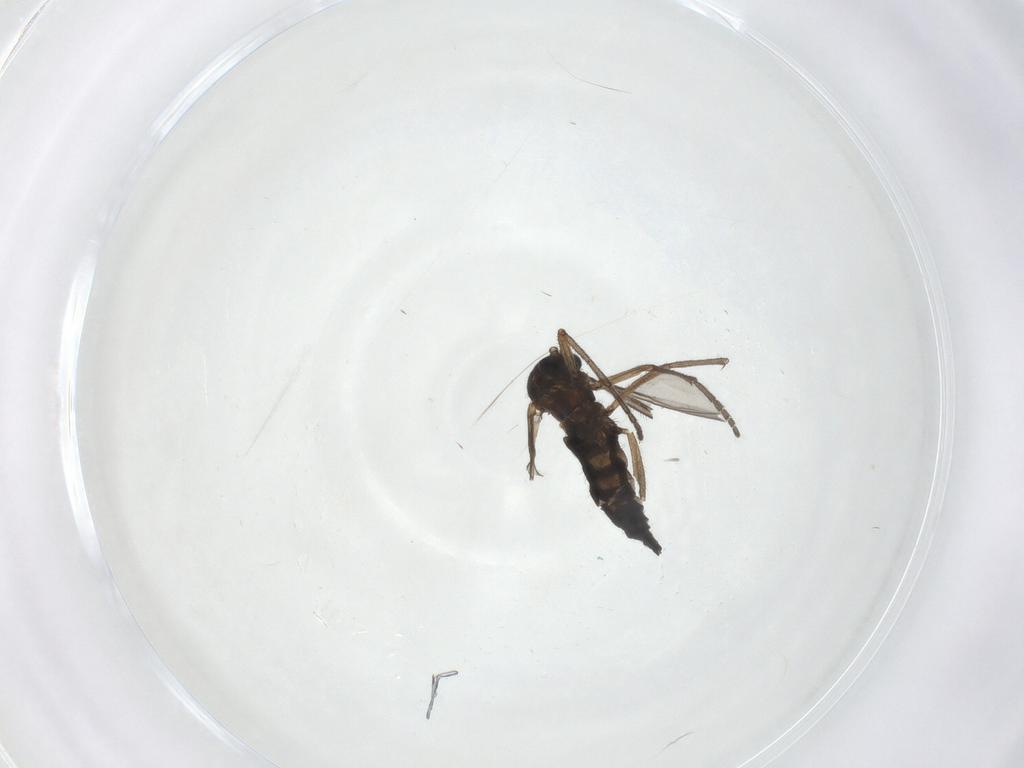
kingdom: Animalia
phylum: Arthropoda
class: Insecta
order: Diptera
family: Sciaridae
